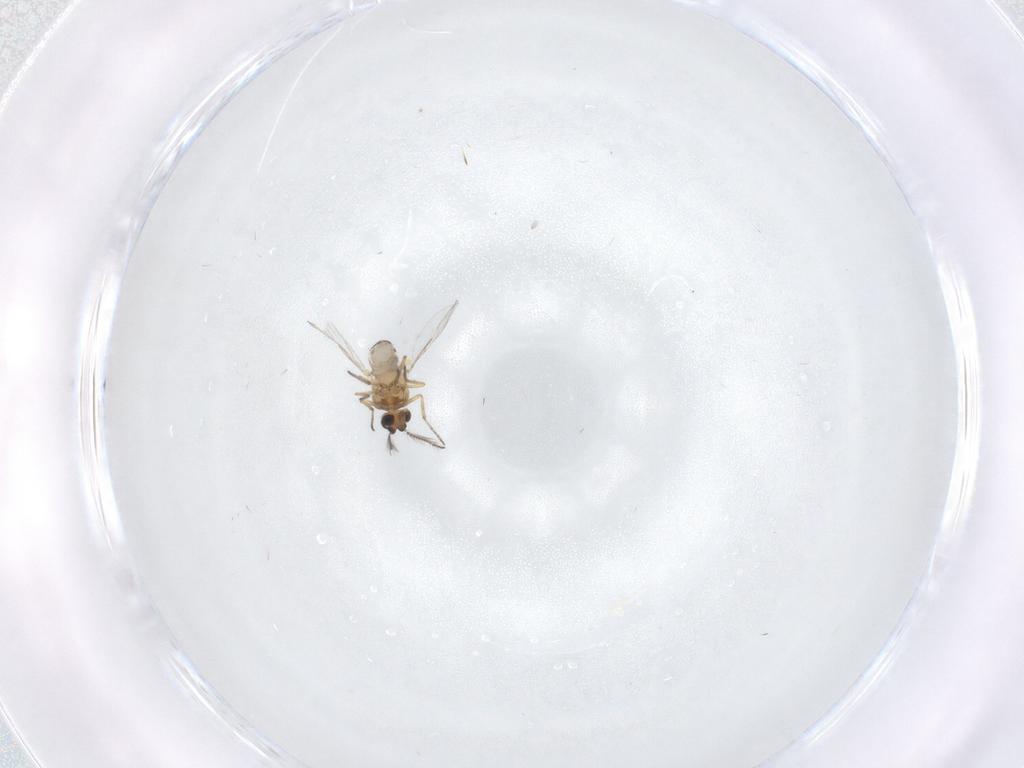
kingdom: Animalia
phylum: Arthropoda
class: Insecta
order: Diptera
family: Ceratopogonidae
